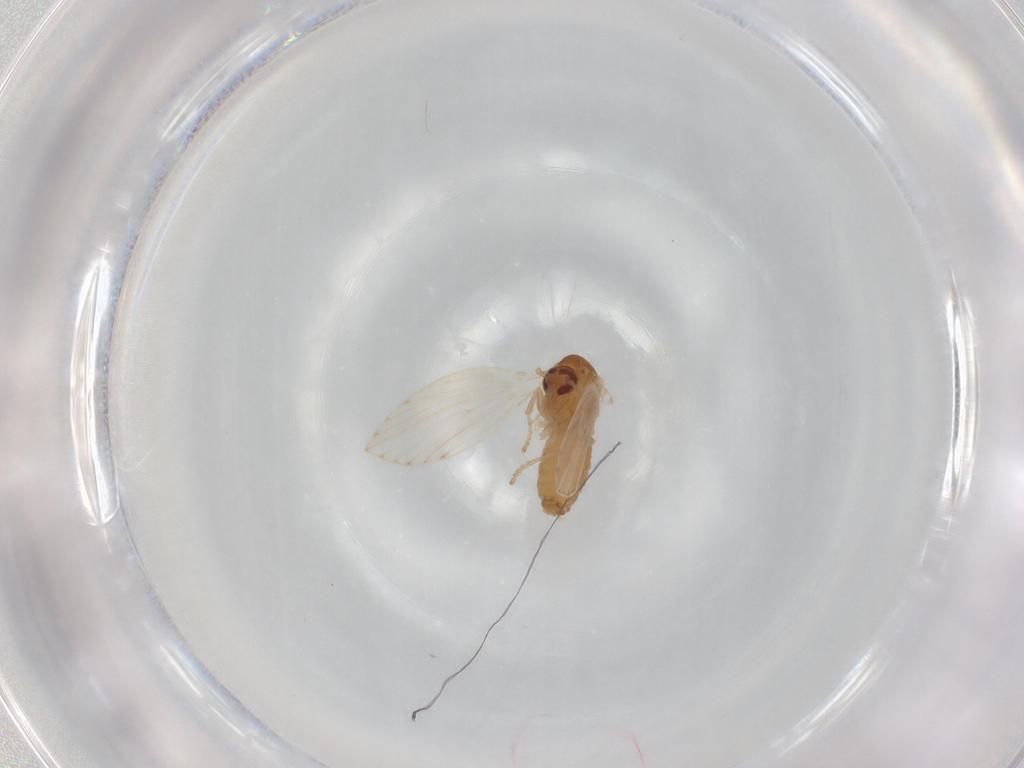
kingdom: Animalia
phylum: Arthropoda
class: Insecta
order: Diptera
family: Psychodidae
